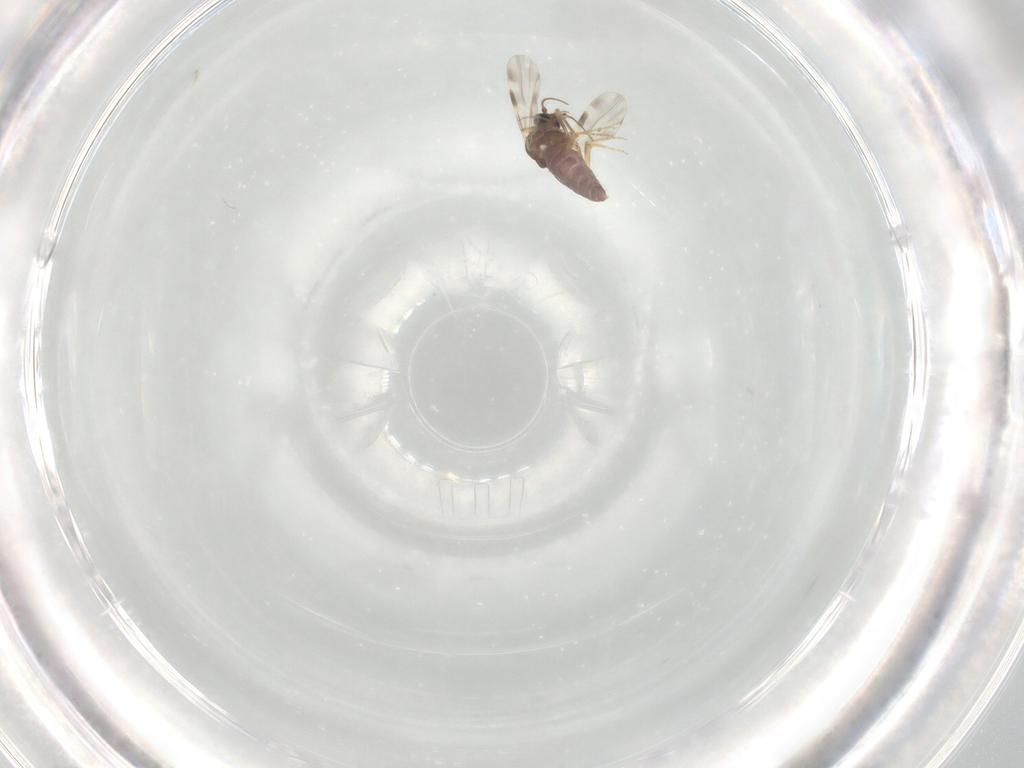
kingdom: Animalia
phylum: Arthropoda
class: Insecta
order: Diptera
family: Ceratopogonidae
